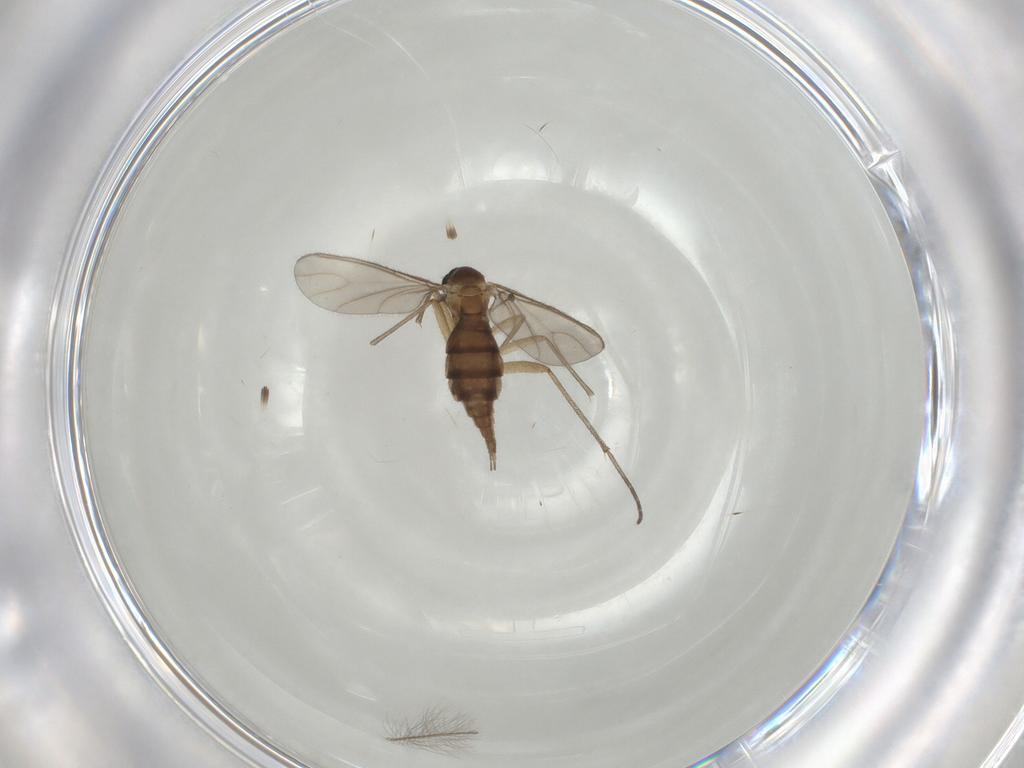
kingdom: Animalia
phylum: Arthropoda
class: Insecta
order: Diptera
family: Sciaridae
